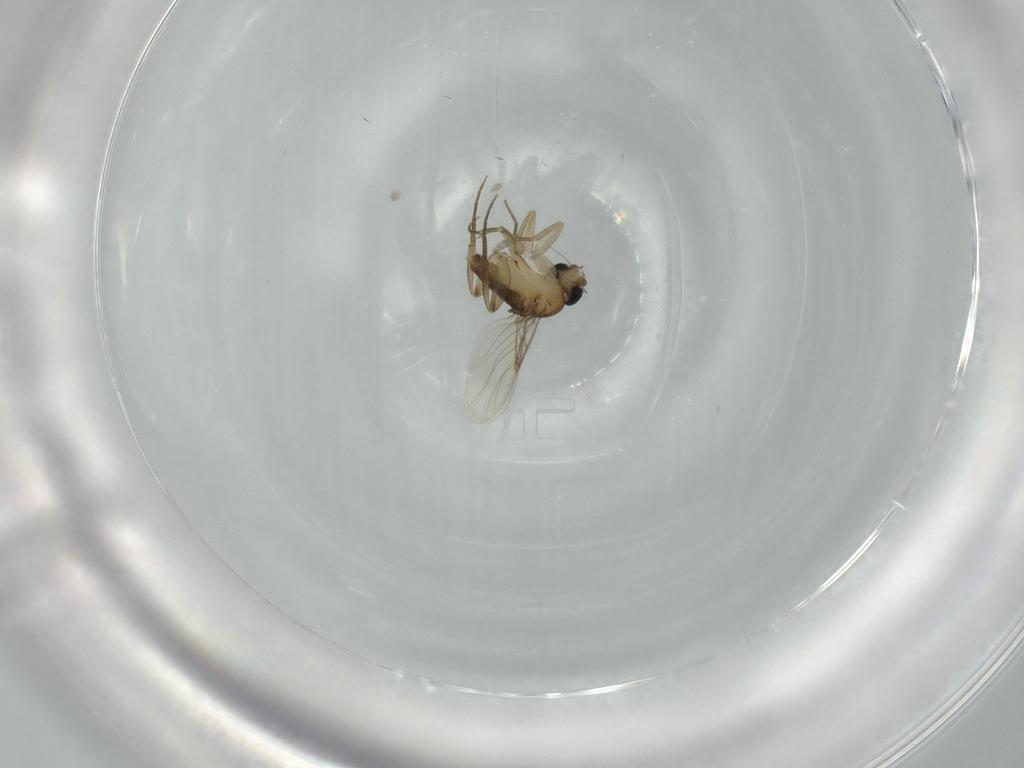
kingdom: Animalia
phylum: Arthropoda
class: Insecta
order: Diptera
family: Phoridae
